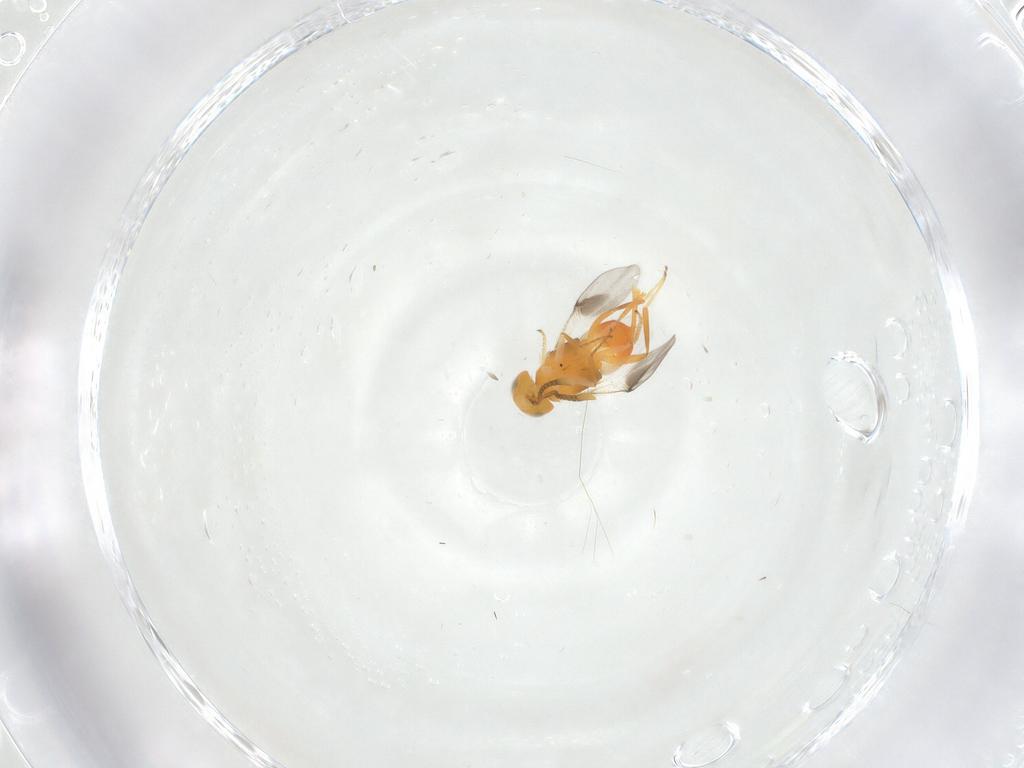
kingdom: Animalia
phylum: Arthropoda
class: Insecta
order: Hymenoptera
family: Encyrtidae
